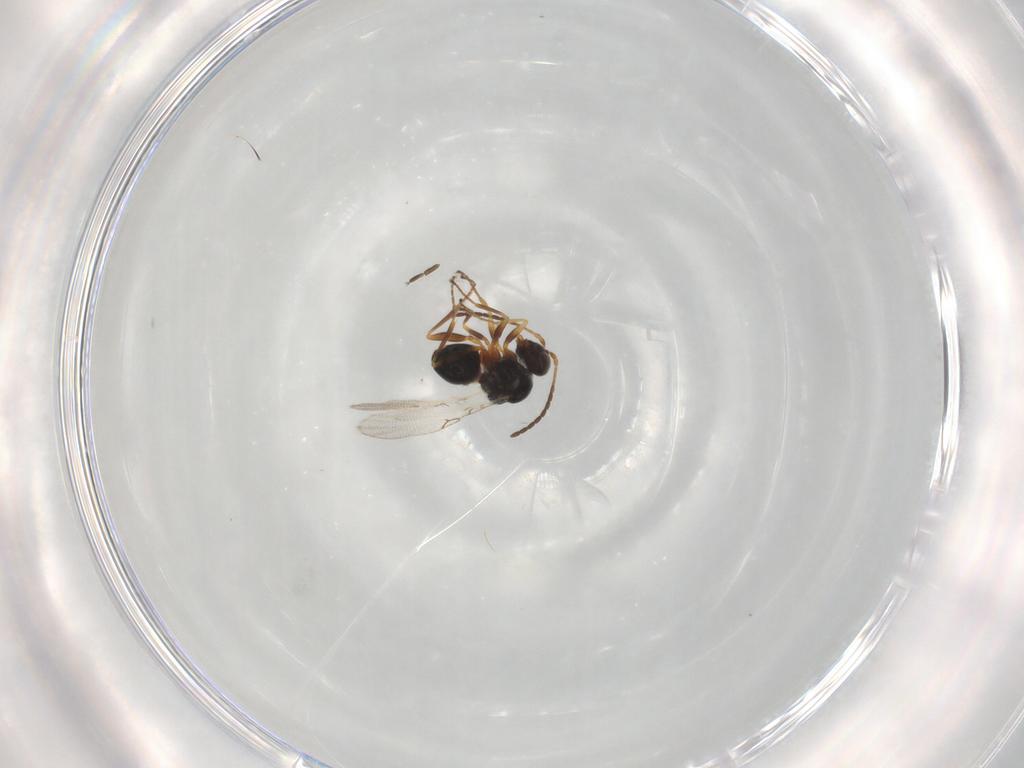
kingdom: Animalia
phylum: Arthropoda
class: Insecta
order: Hymenoptera
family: Figitidae
